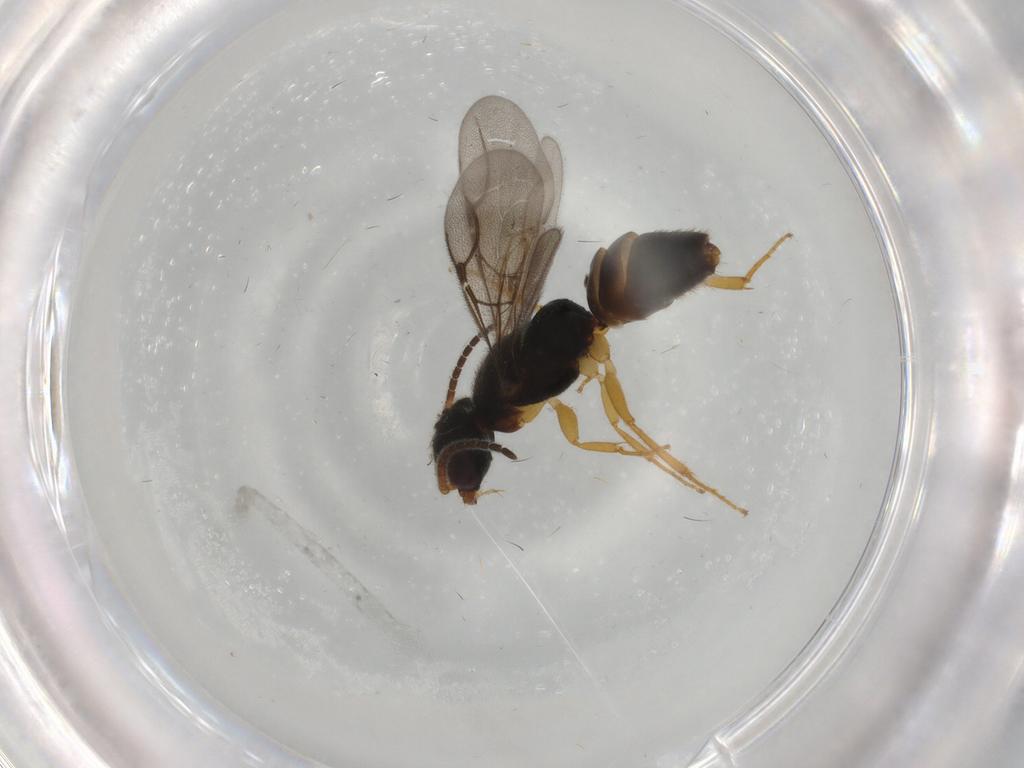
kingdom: Animalia
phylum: Arthropoda
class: Insecta
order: Hymenoptera
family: Bethylidae
